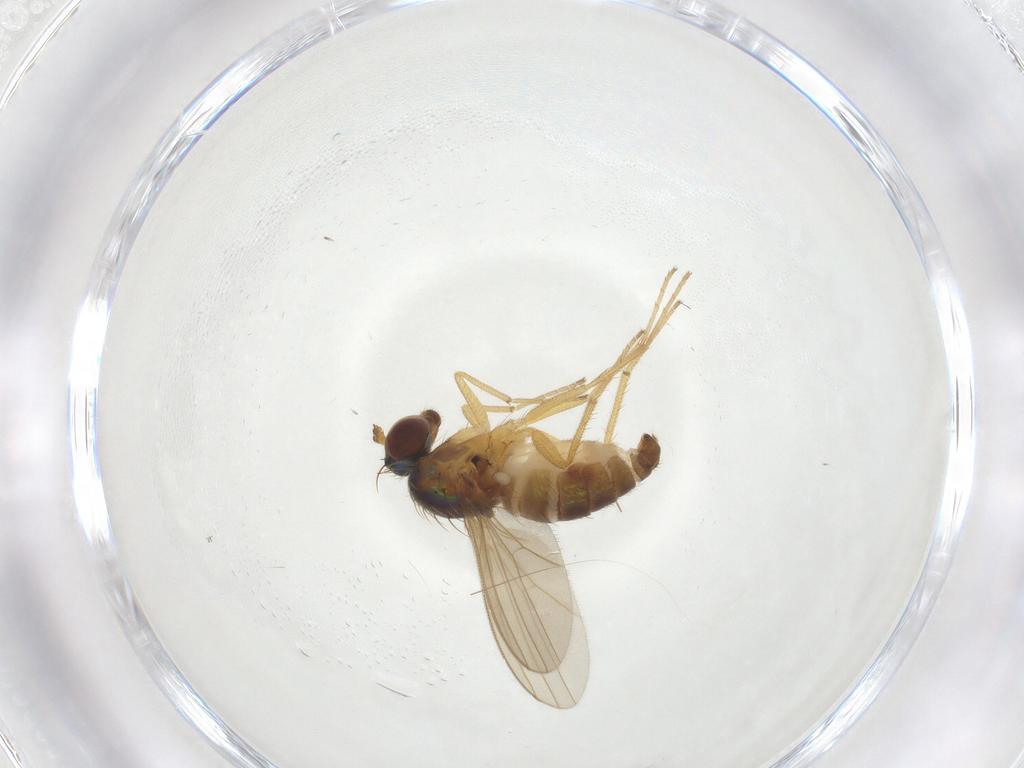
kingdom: Animalia
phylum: Arthropoda
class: Insecta
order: Diptera
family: Dolichopodidae
